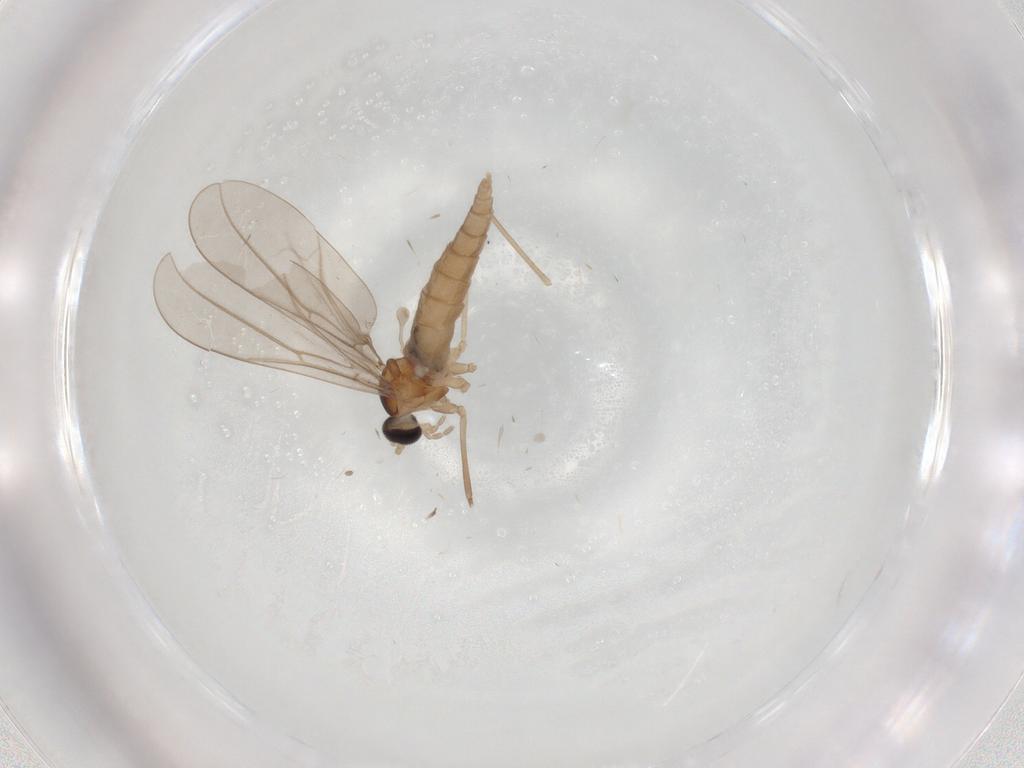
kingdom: Animalia
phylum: Arthropoda
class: Insecta
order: Diptera
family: Cecidomyiidae
